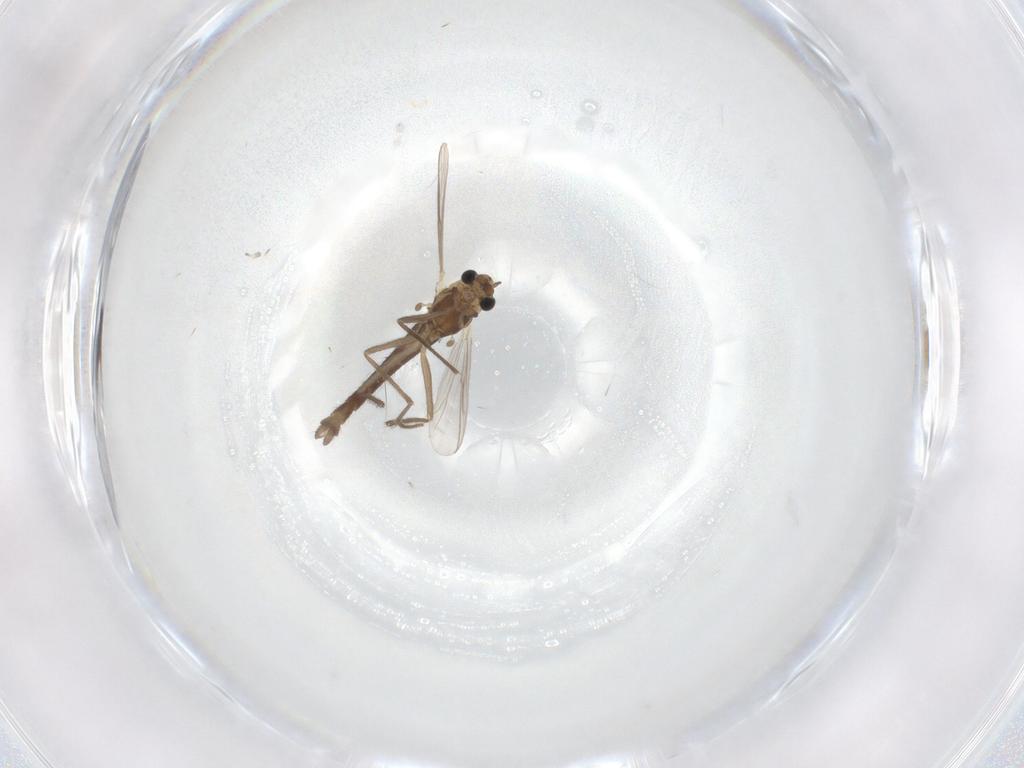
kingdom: Animalia
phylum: Arthropoda
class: Insecta
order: Diptera
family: Chironomidae
